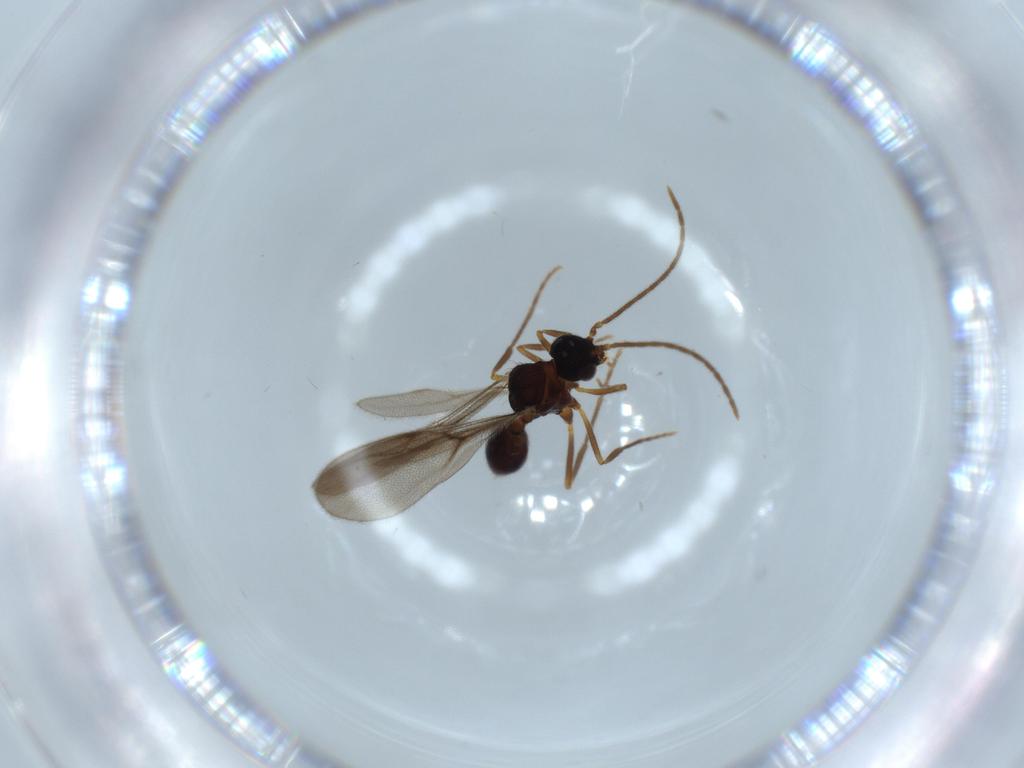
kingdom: Animalia
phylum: Arthropoda
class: Insecta
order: Hymenoptera
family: Formicidae
